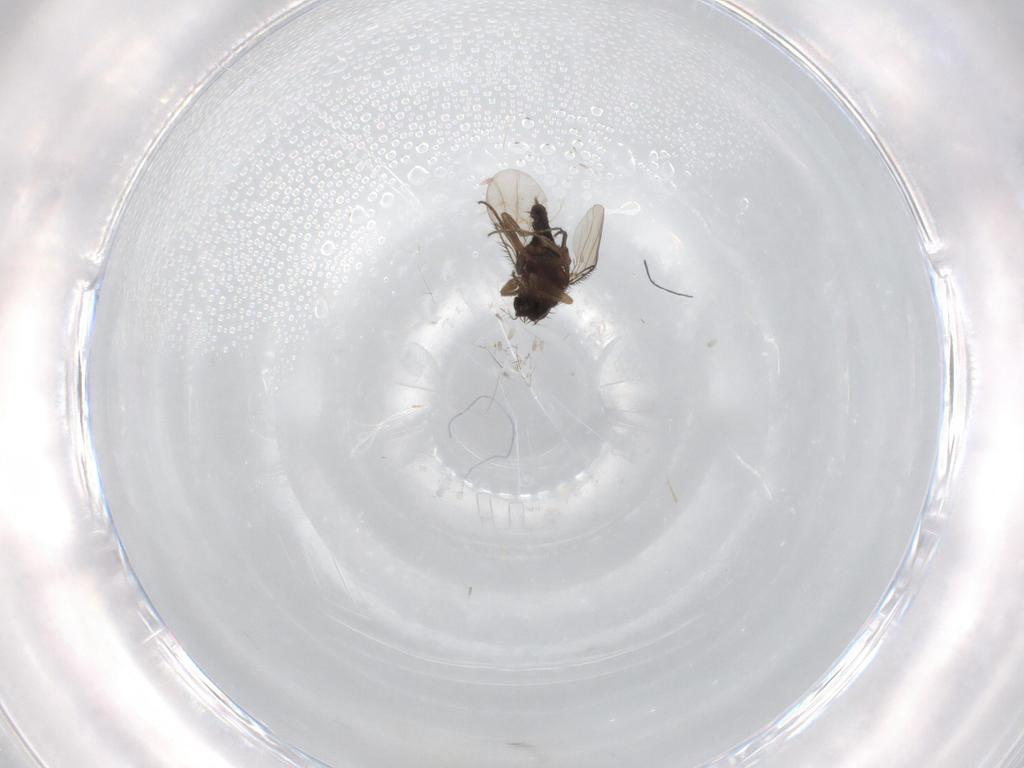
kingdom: Animalia
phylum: Arthropoda
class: Insecta
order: Diptera
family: Phoridae
